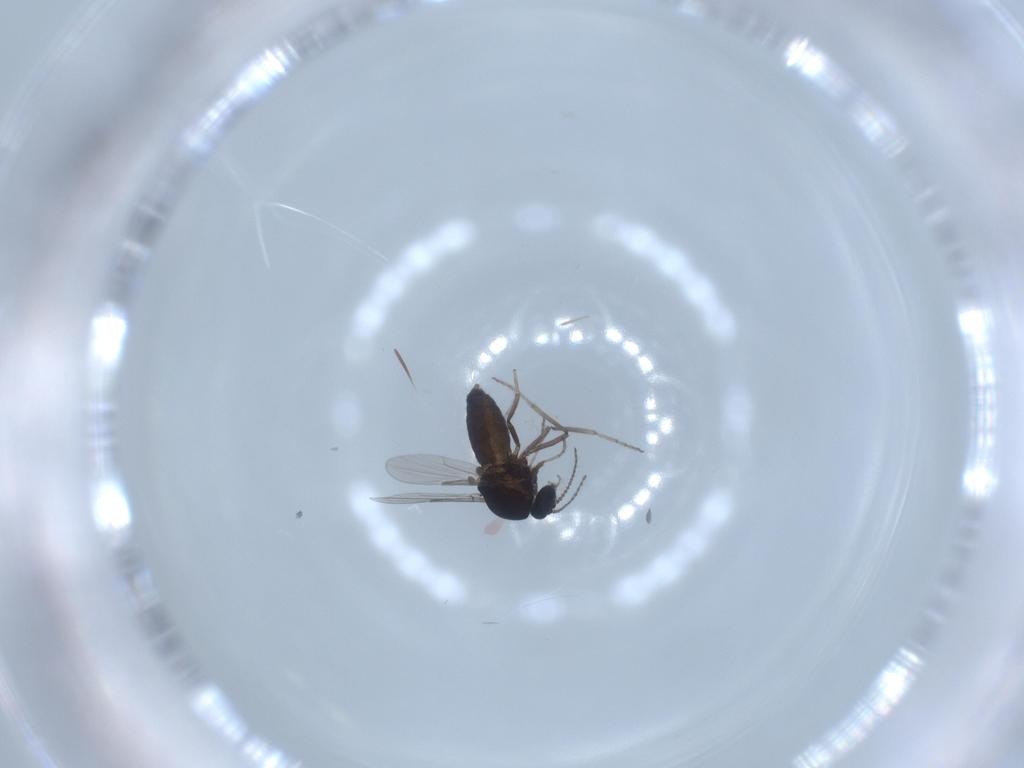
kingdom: Animalia
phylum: Arthropoda
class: Insecta
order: Diptera
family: Ceratopogonidae
